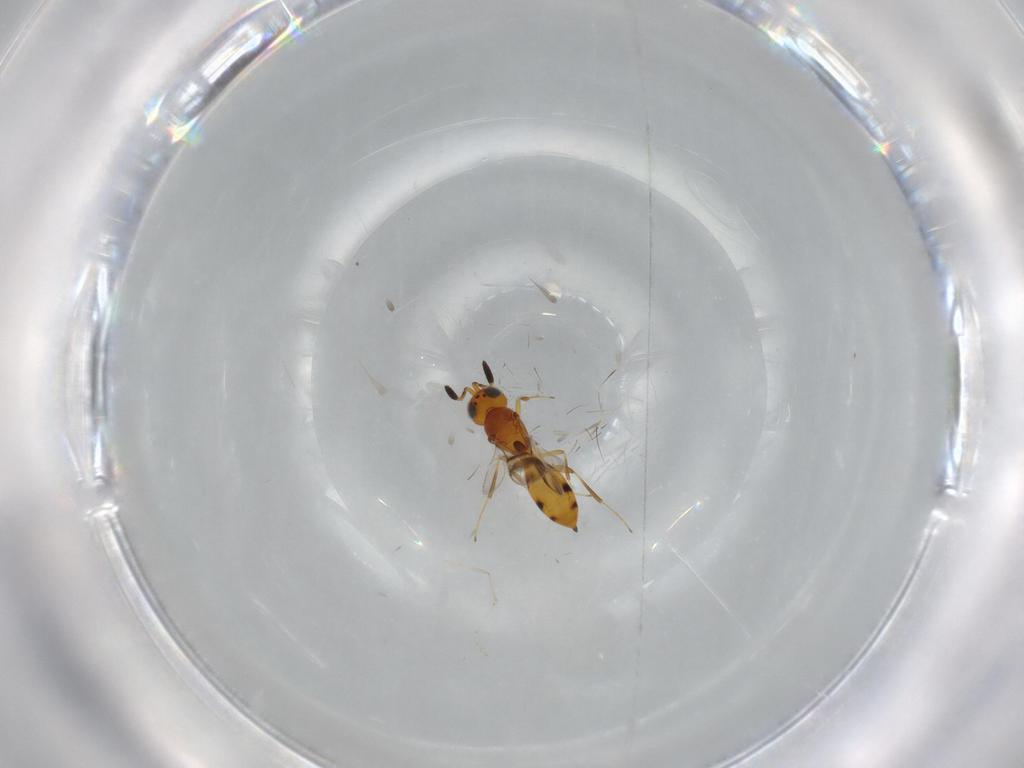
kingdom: Animalia
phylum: Arthropoda
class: Insecta
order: Hymenoptera
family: Scelionidae
